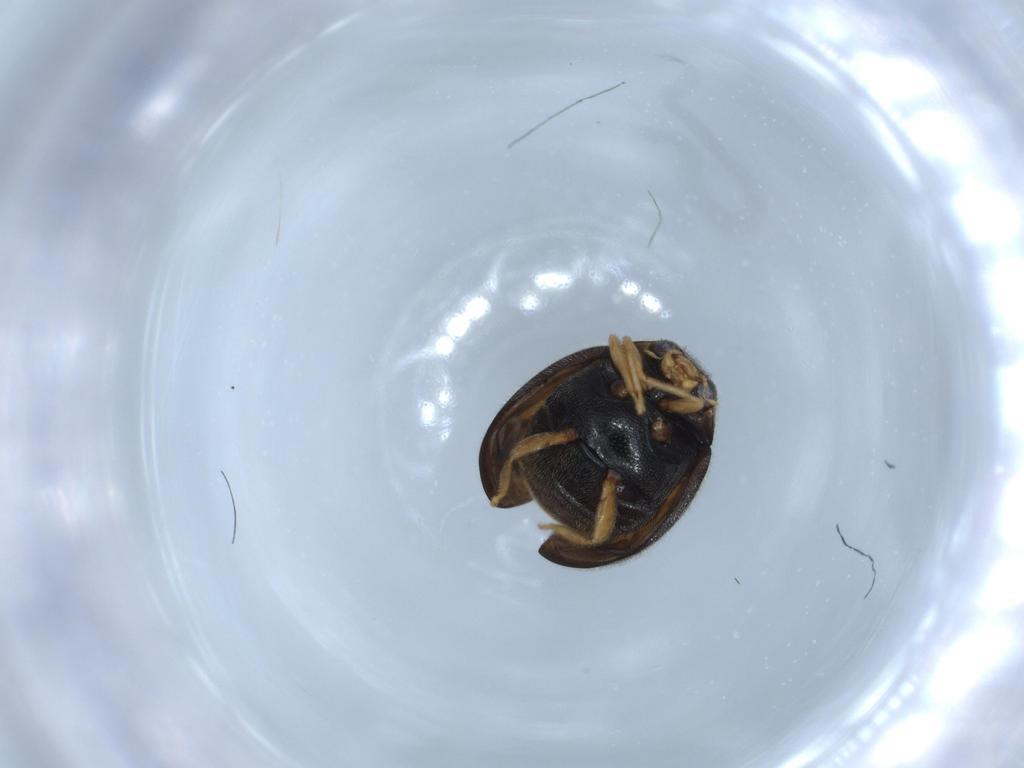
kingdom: Animalia
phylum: Arthropoda
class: Insecta
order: Coleoptera
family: Coccinellidae
